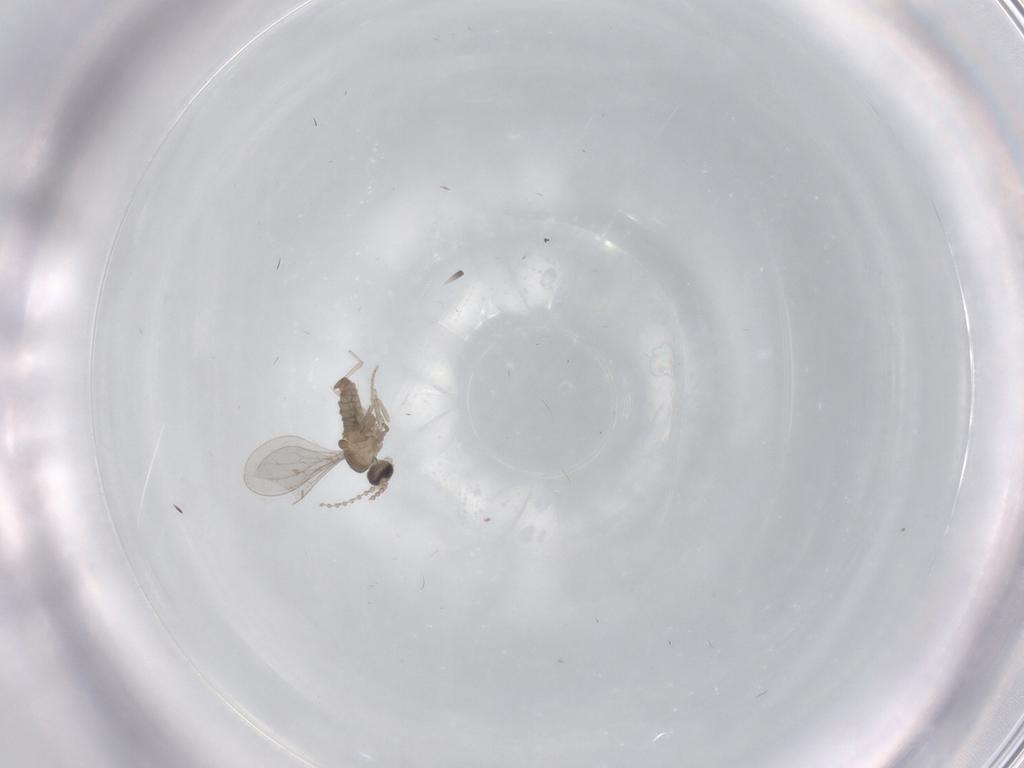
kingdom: Animalia
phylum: Arthropoda
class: Insecta
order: Diptera
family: Cecidomyiidae
